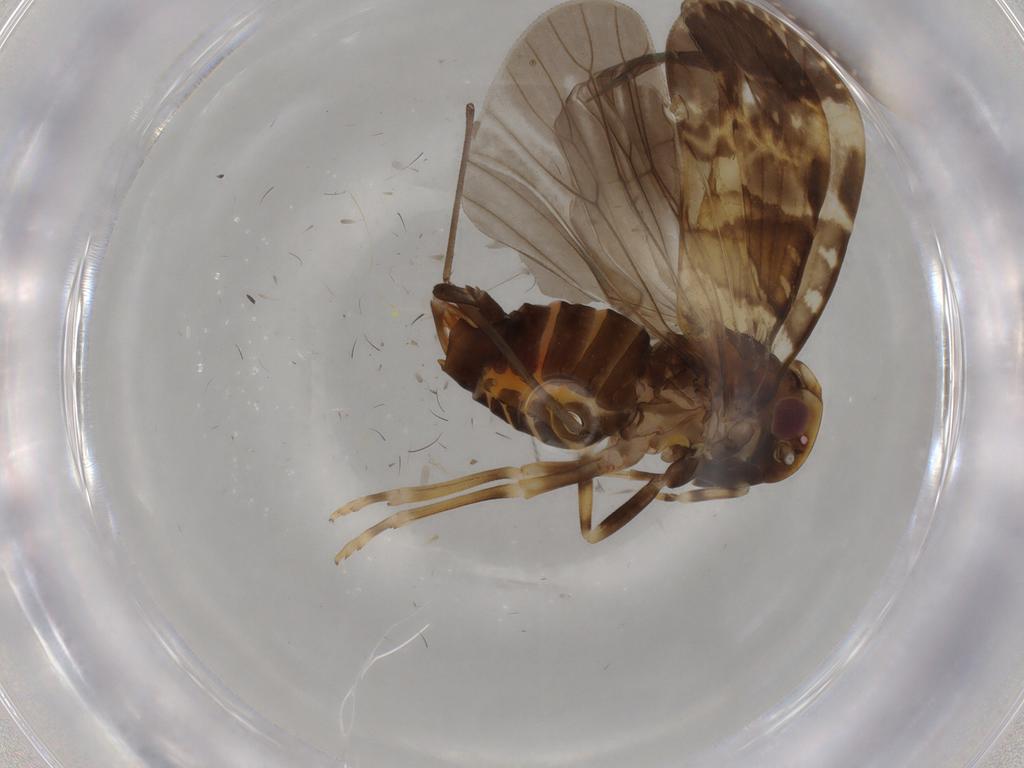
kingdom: Animalia
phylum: Arthropoda
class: Insecta
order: Hemiptera
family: Cixiidae
